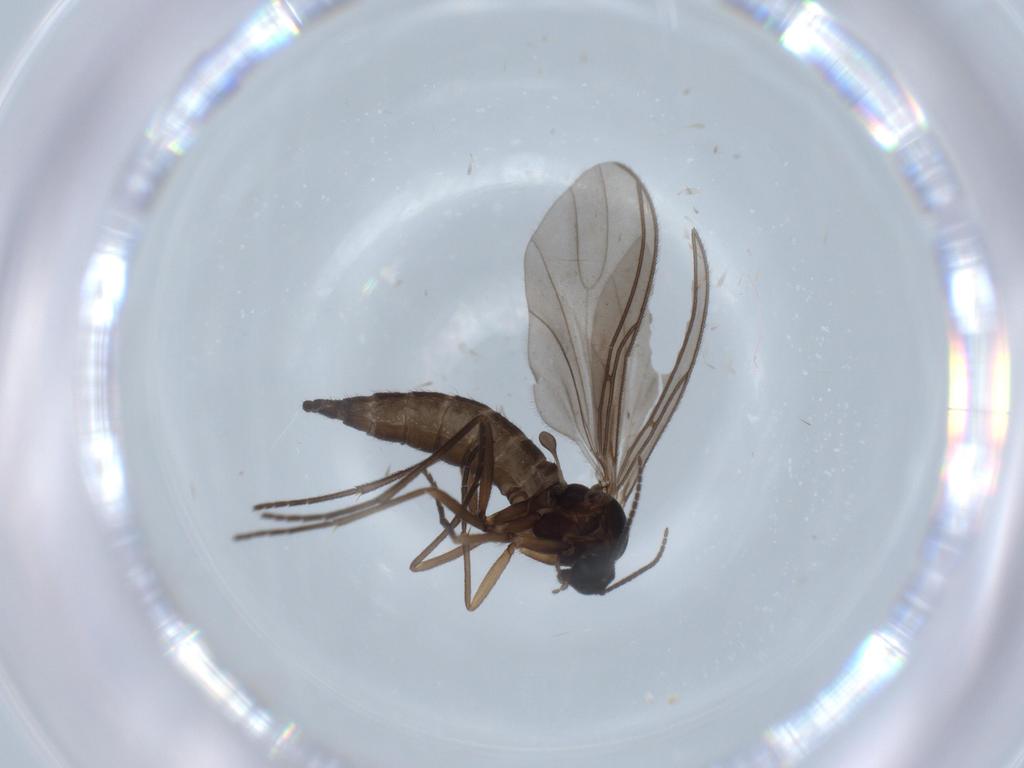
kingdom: Animalia
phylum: Arthropoda
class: Insecta
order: Diptera
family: Sciaridae
